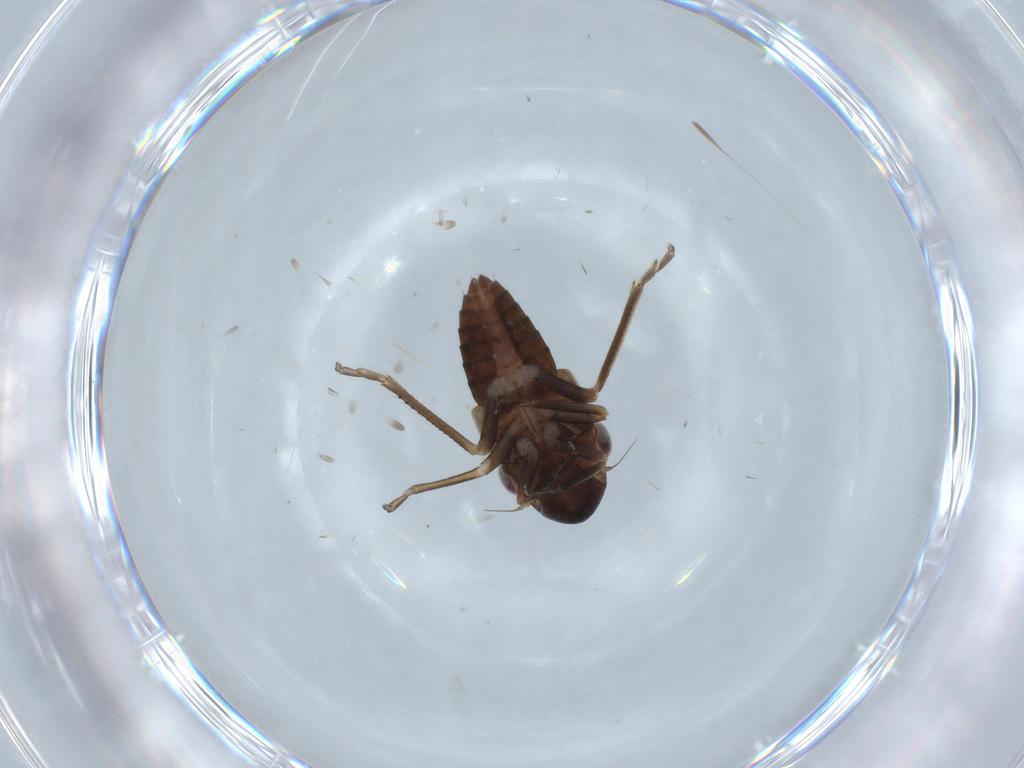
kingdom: Animalia
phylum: Arthropoda
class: Insecta
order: Hemiptera
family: Cicadellidae
